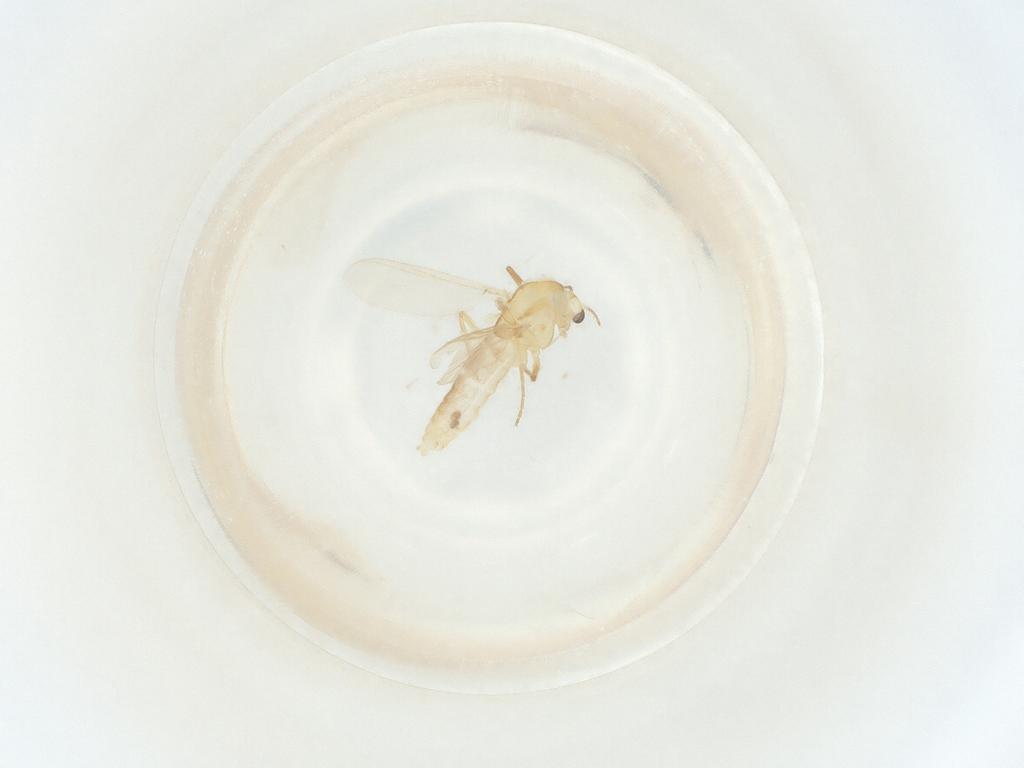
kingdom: Animalia
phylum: Arthropoda
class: Insecta
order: Diptera
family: Chironomidae
